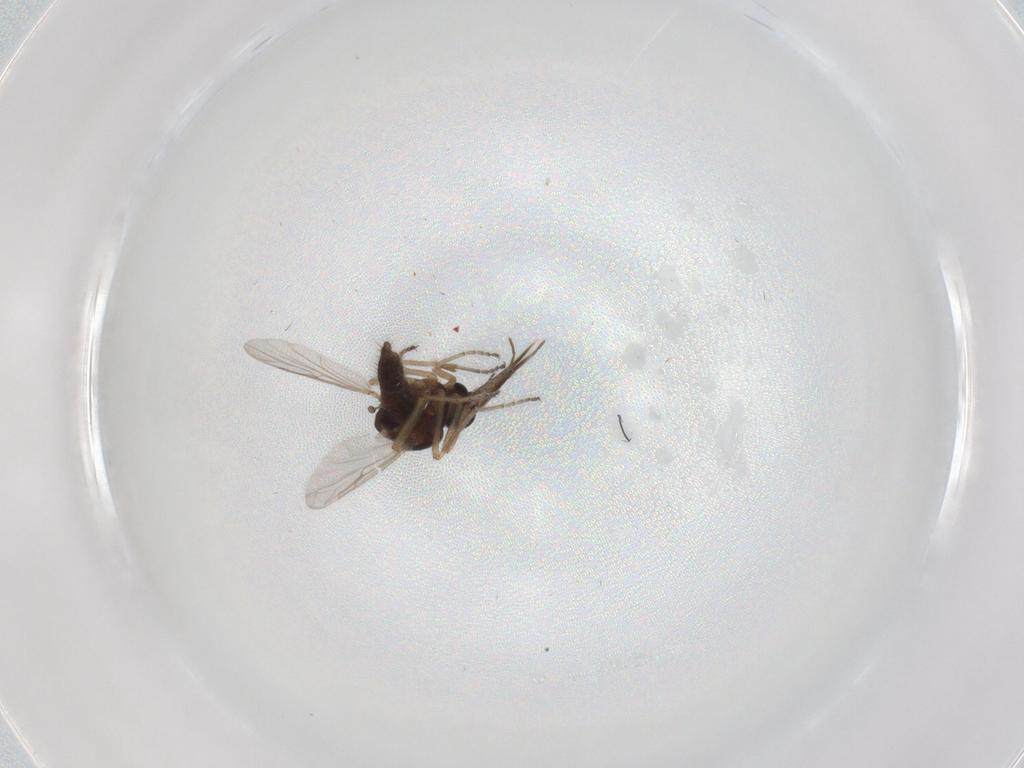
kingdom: Animalia
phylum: Arthropoda
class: Insecta
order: Diptera
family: Ceratopogonidae
